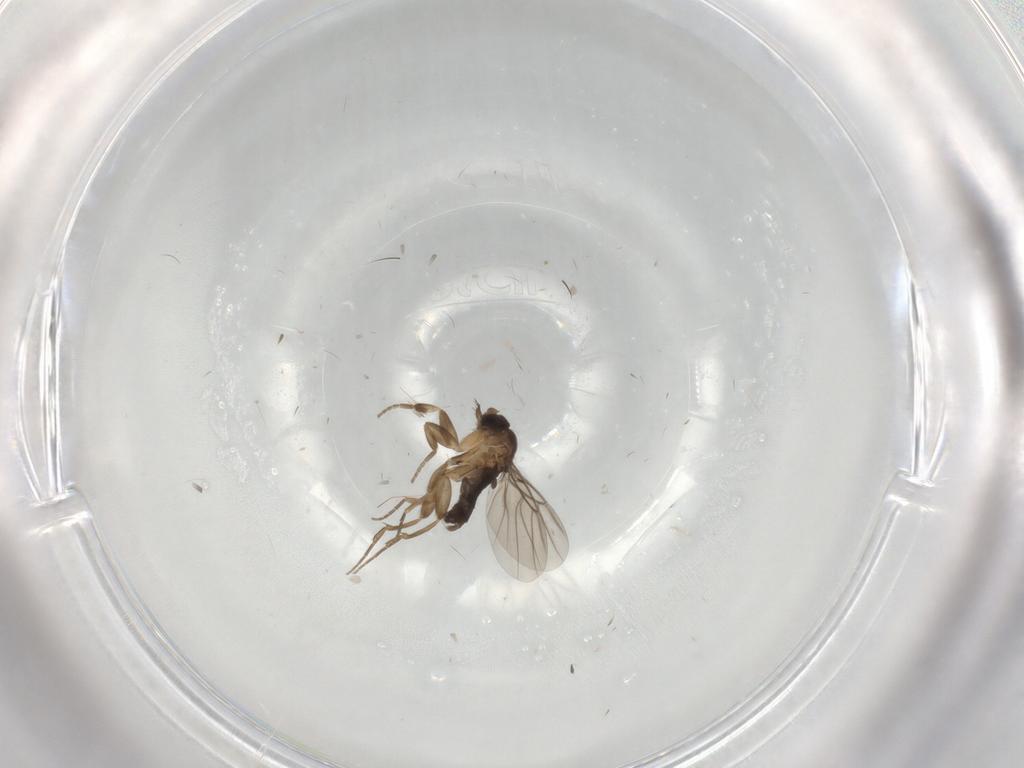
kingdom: Animalia
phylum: Arthropoda
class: Insecta
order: Diptera
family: Phoridae
